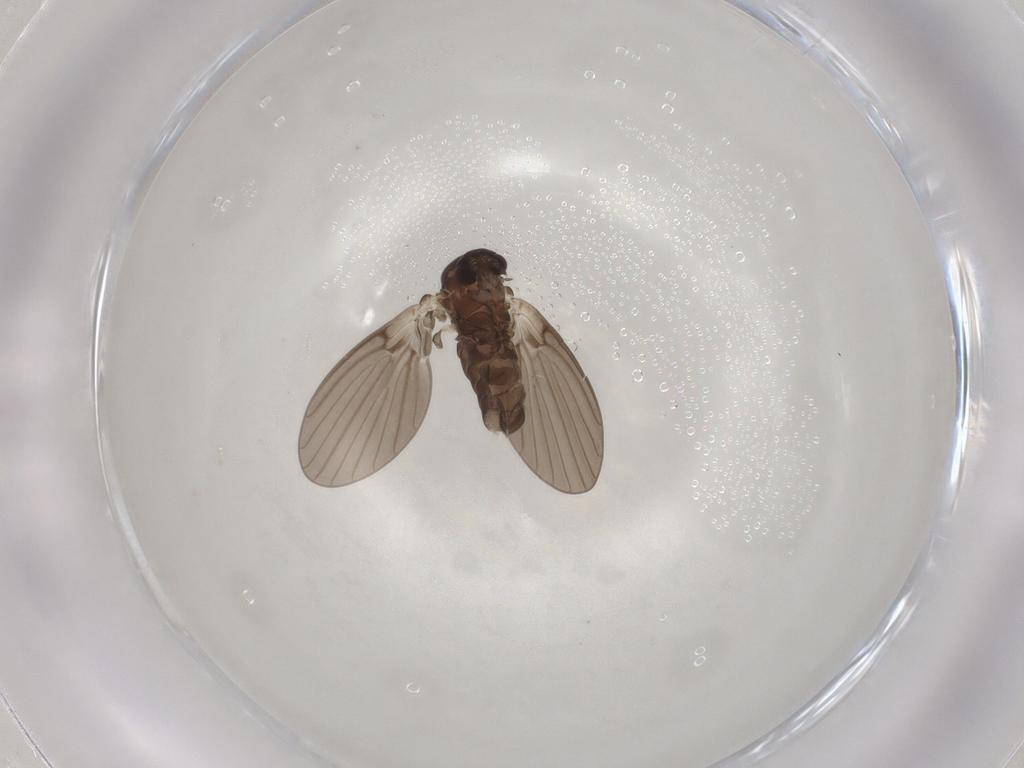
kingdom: Animalia
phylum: Arthropoda
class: Insecta
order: Diptera
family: Psychodidae
